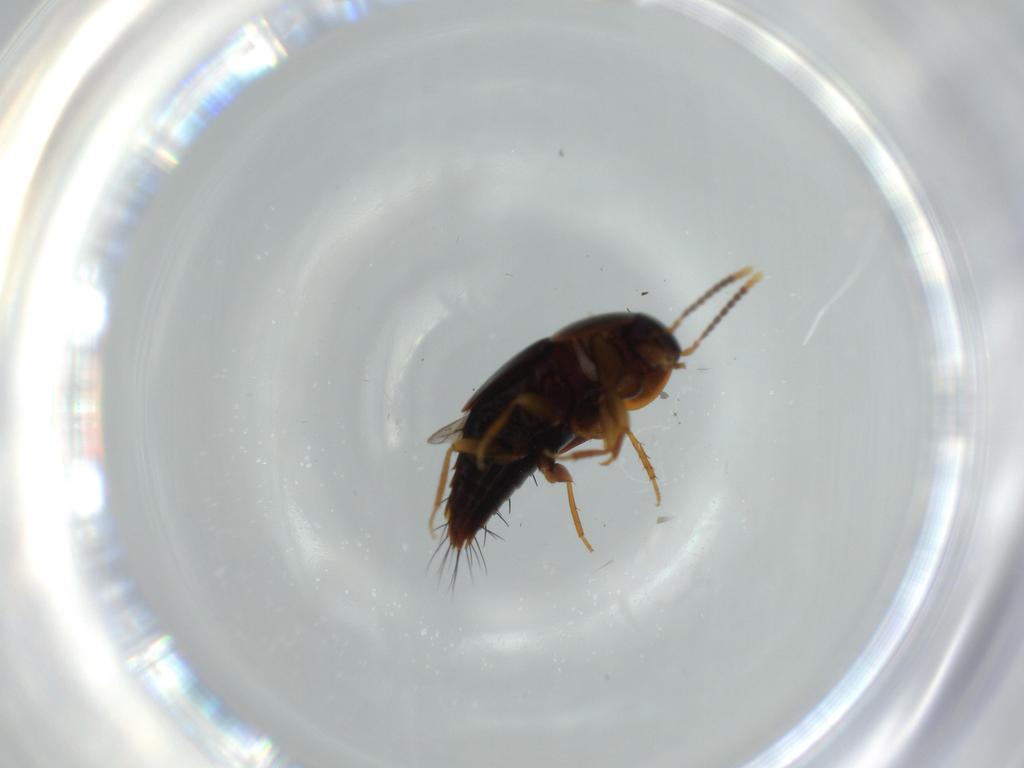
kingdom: Animalia
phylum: Arthropoda
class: Insecta
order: Coleoptera
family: Staphylinidae
